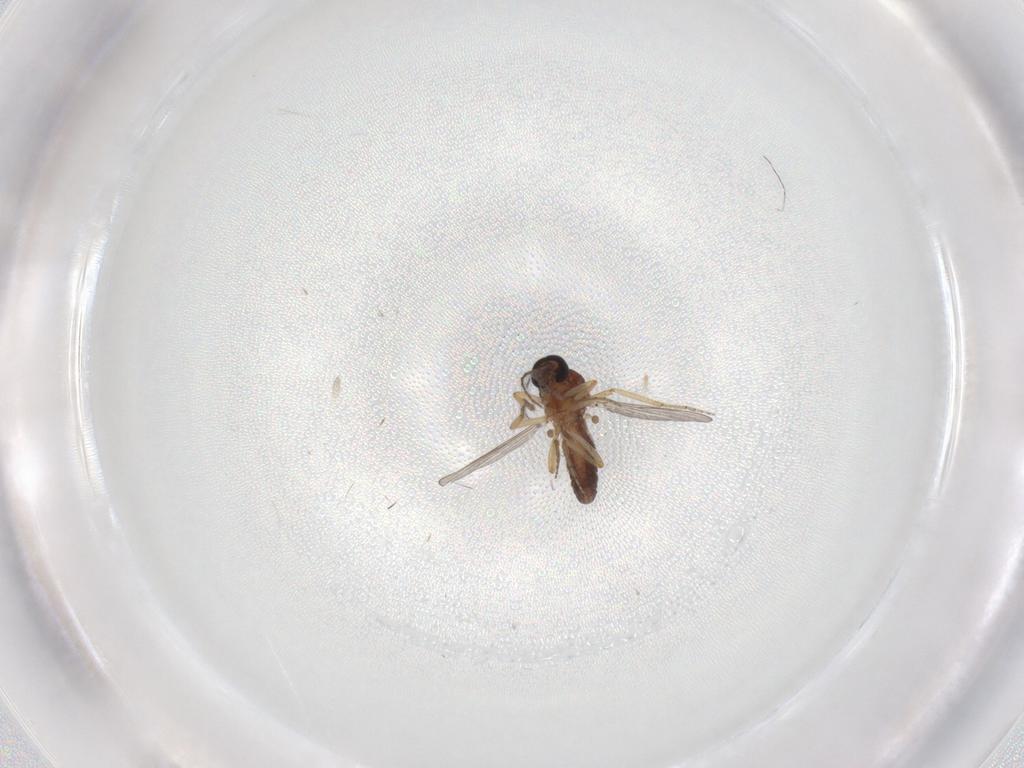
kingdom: Animalia
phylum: Arthropoda
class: Insecta
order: Diptera
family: Ceratopogonidae
